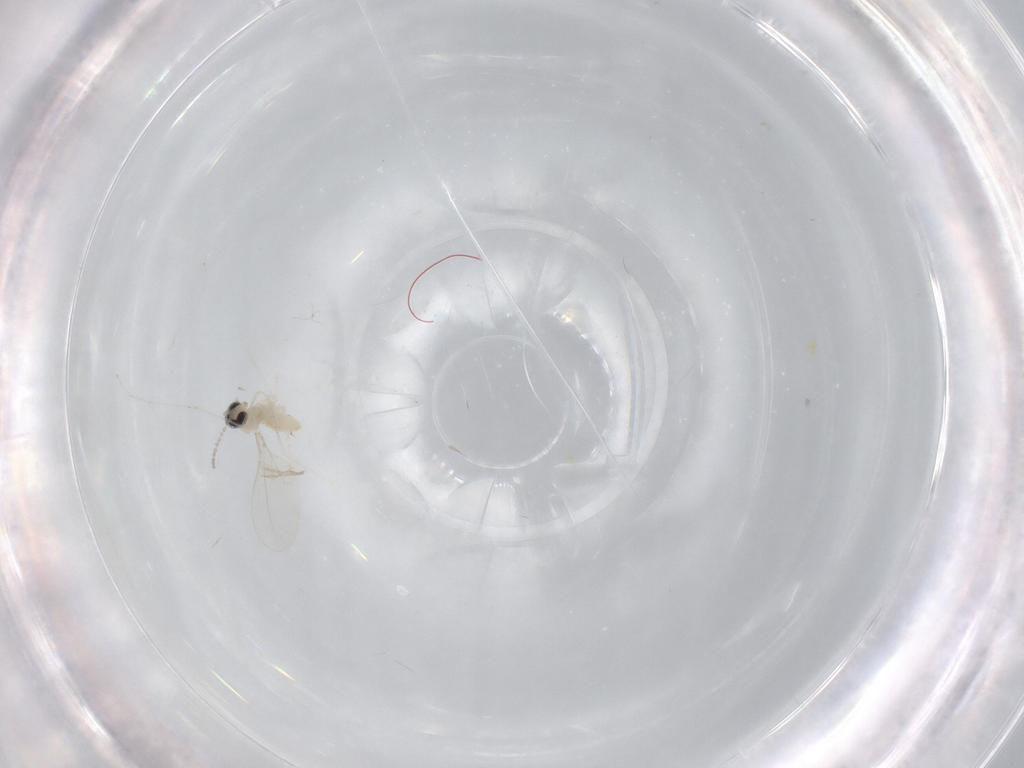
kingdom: Animalia
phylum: Arthropoda
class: Insecta
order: Diptera
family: Cecidomyiidae
